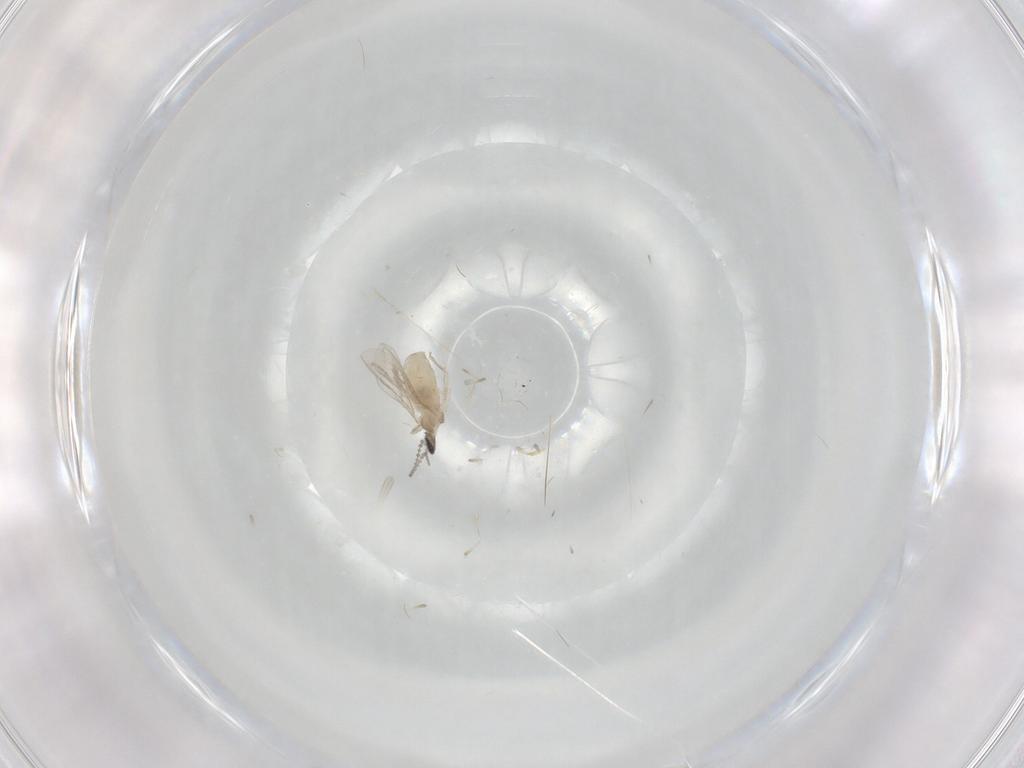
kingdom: Animalia
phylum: Arthropoda
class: Insecta
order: Diptera
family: Cecidomyiidae
